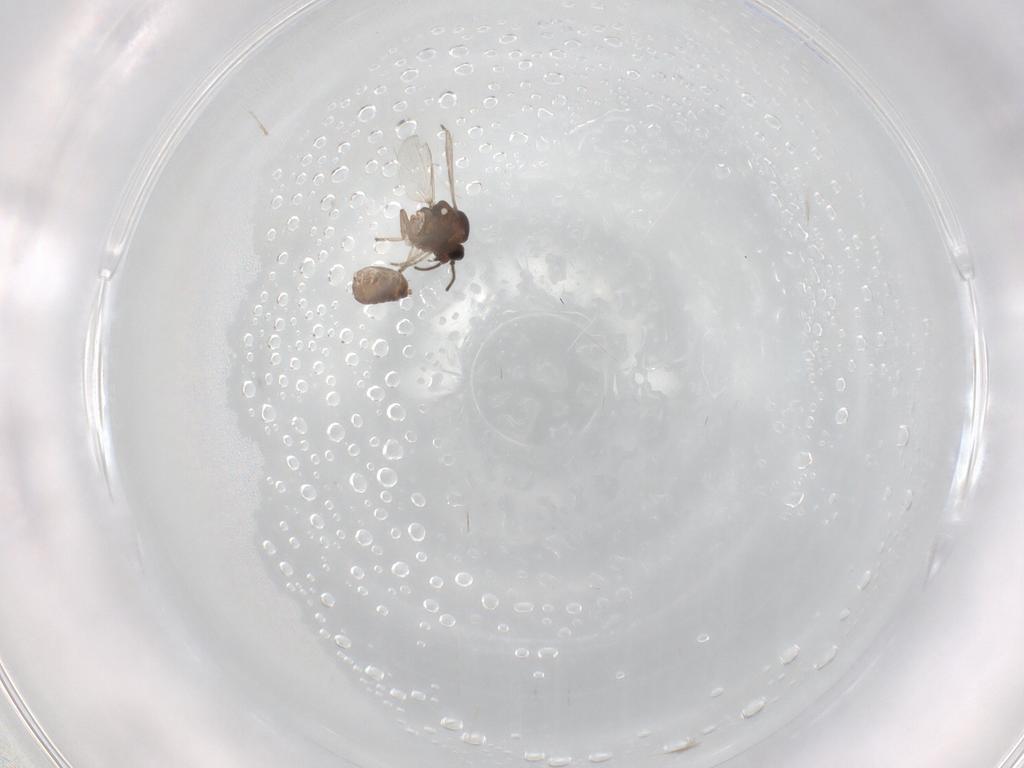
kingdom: Animalia
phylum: Arthropoda
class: Insecta
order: Diptera
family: Ceratopogonidae
